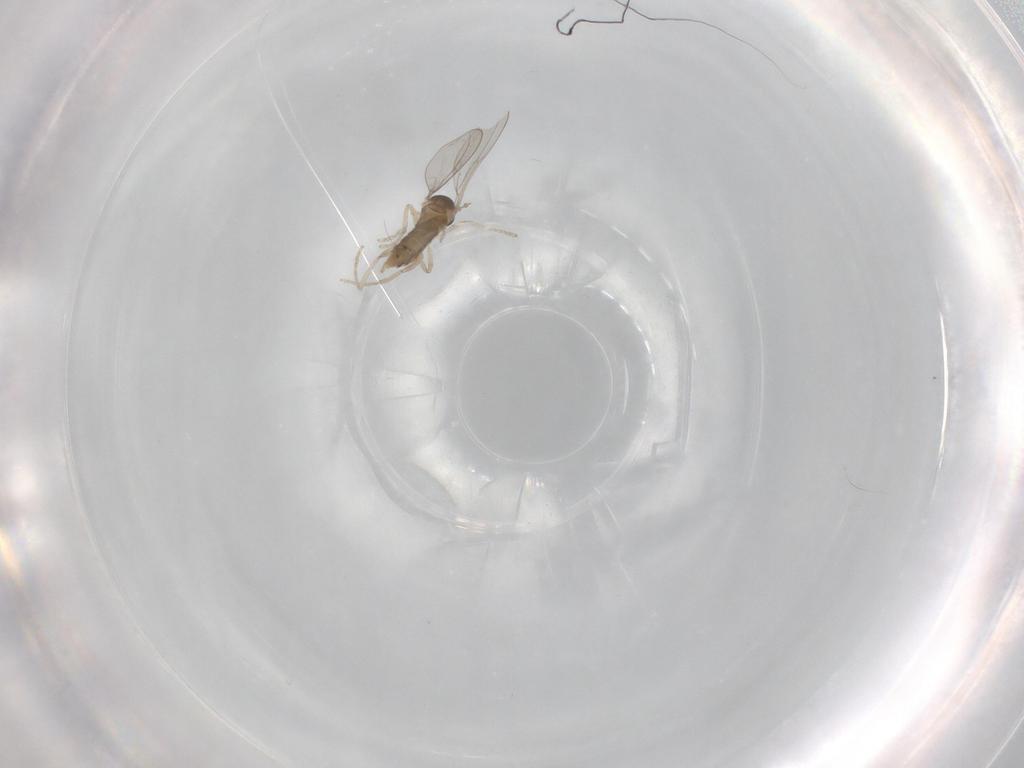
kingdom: Animalia
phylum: Arthropoda
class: Insecta
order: Diptera
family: Cecidomyiidae
